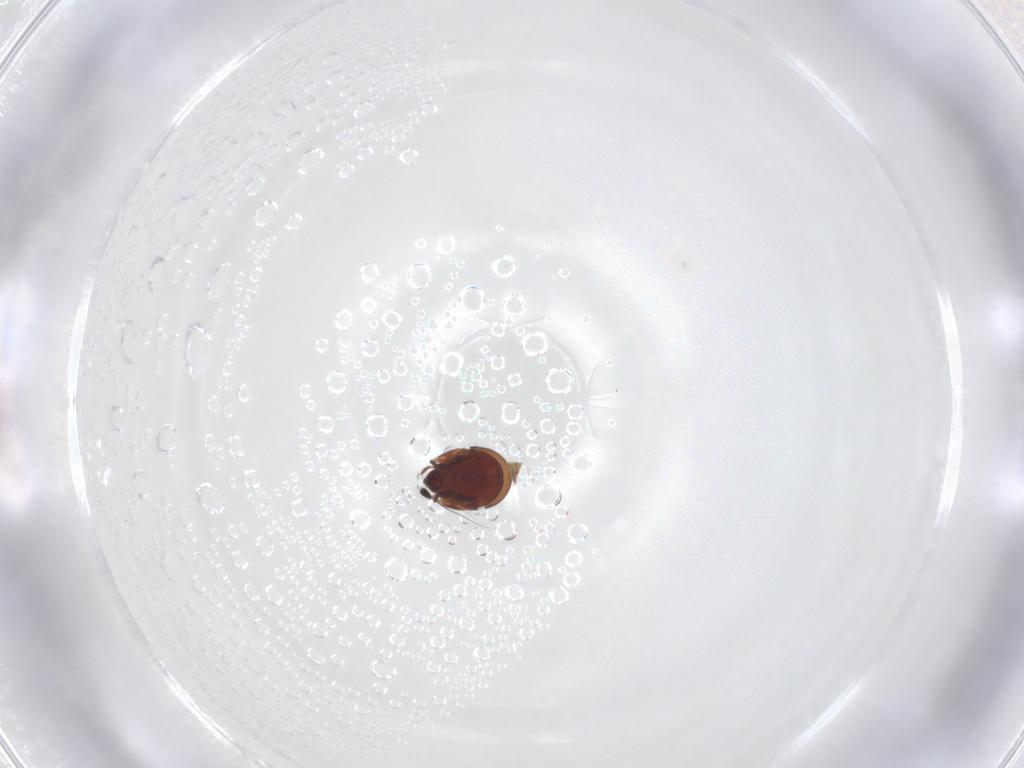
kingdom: Animalia
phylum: Arthropoda
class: Arachnida
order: Sarcoptiformes
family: Humerobatidae
